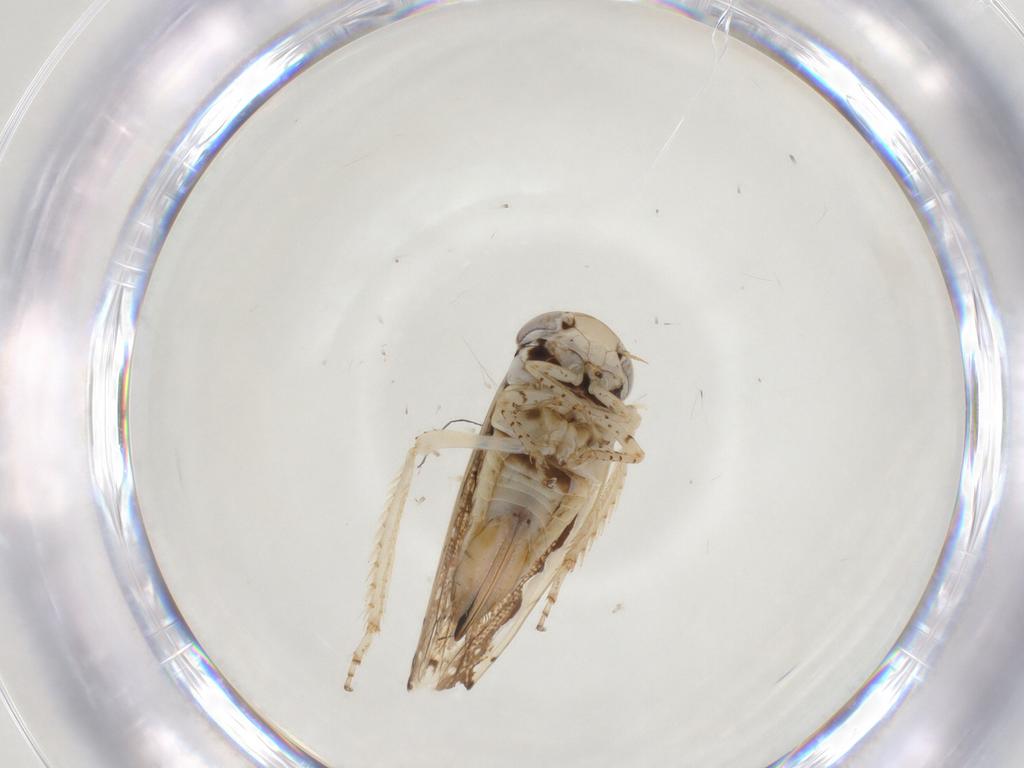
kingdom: Animalia
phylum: Arthropoda
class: Insecta
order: Hemiptera
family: Cicadellidae
